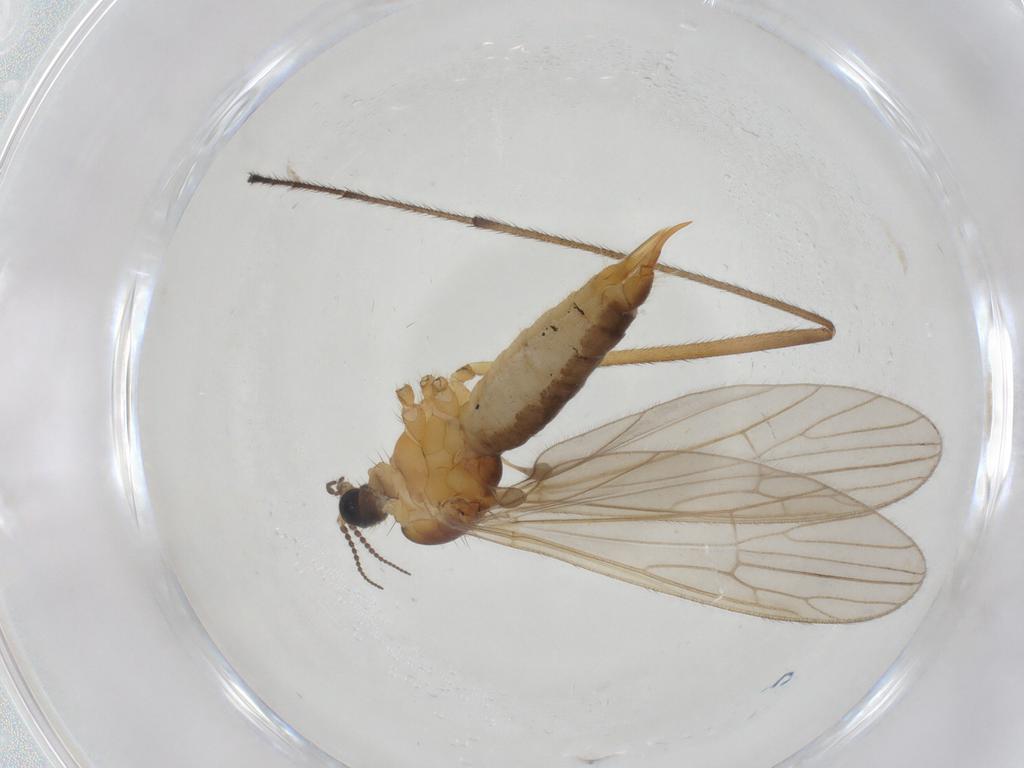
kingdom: Animalia
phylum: Arthropoda
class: Insecta
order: Diptera
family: Limoniidae
